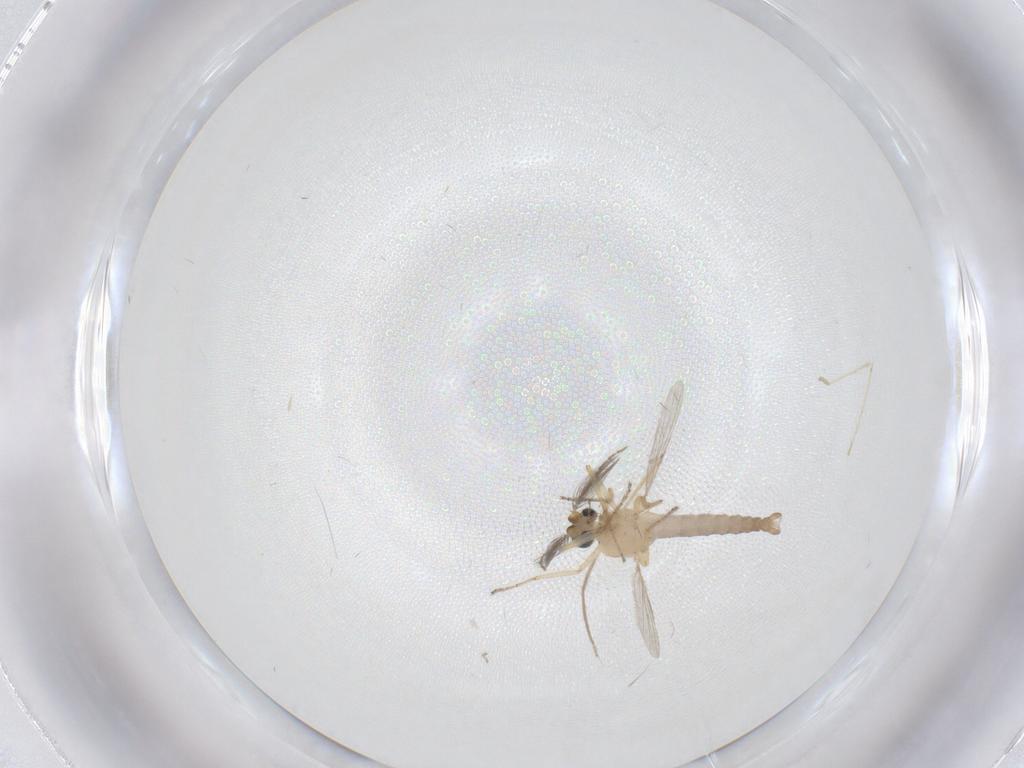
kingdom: Animalia
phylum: Arthropoda
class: Insecta
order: Diptera
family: Ceratopogonidae
